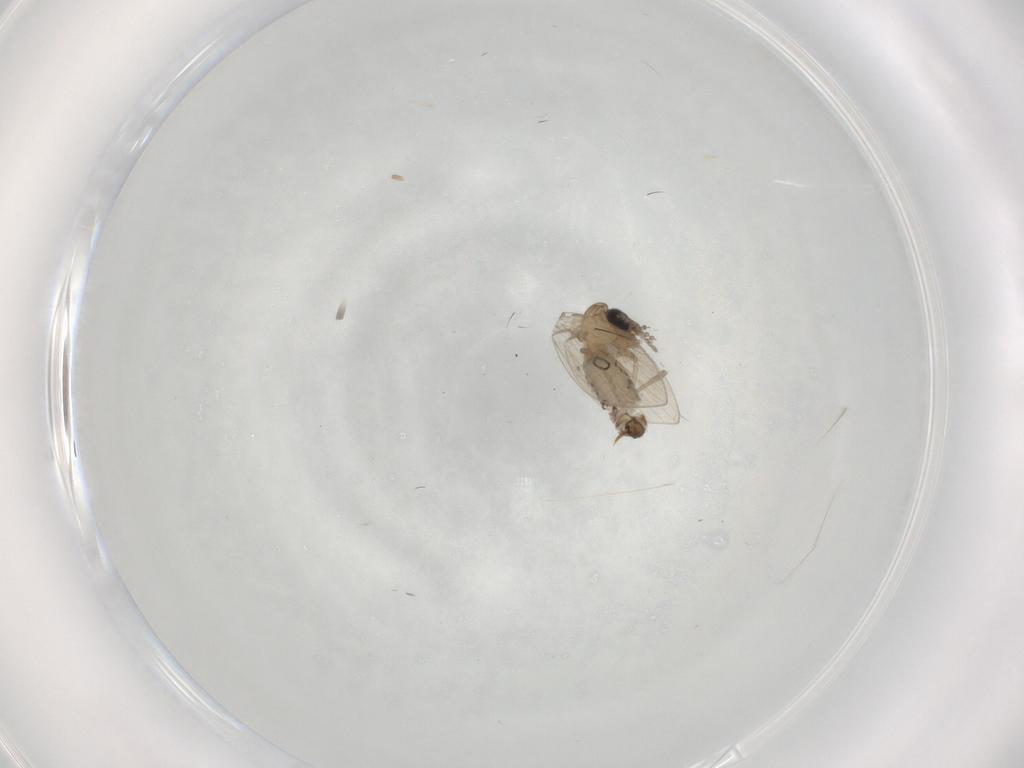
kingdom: Animalia
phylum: Arthropoda
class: Insecta
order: Diptera
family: Psychodidae
